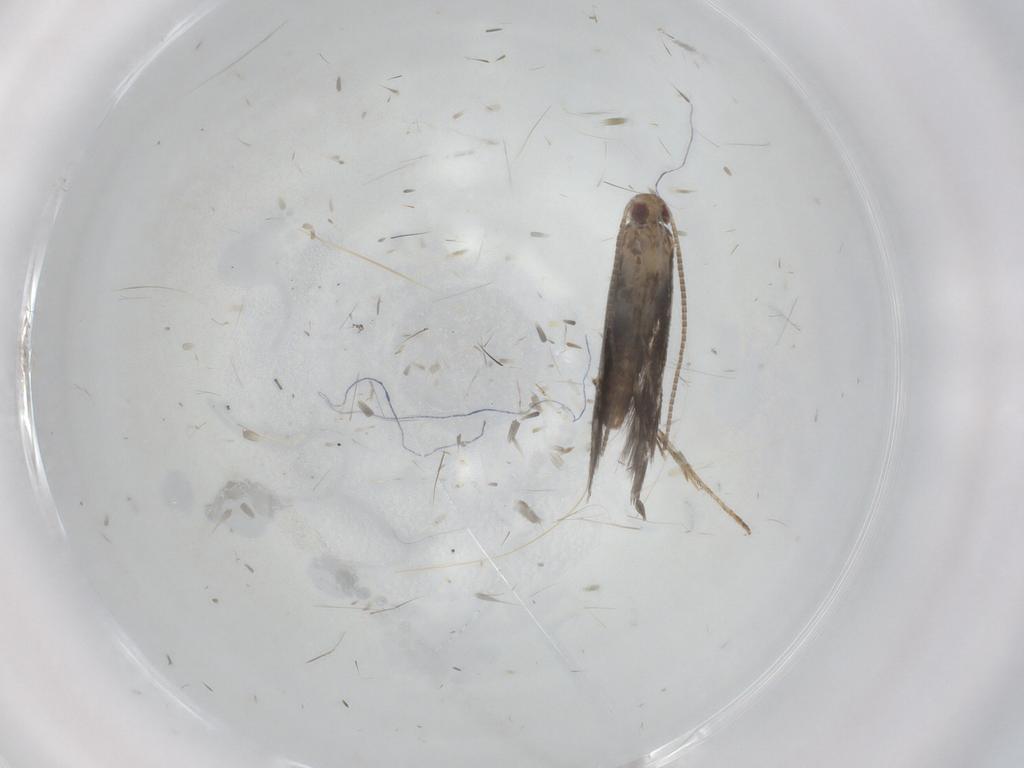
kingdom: Animalia
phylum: Arthropoda
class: Insecta
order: Lepidoptera
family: Gracillariidae
